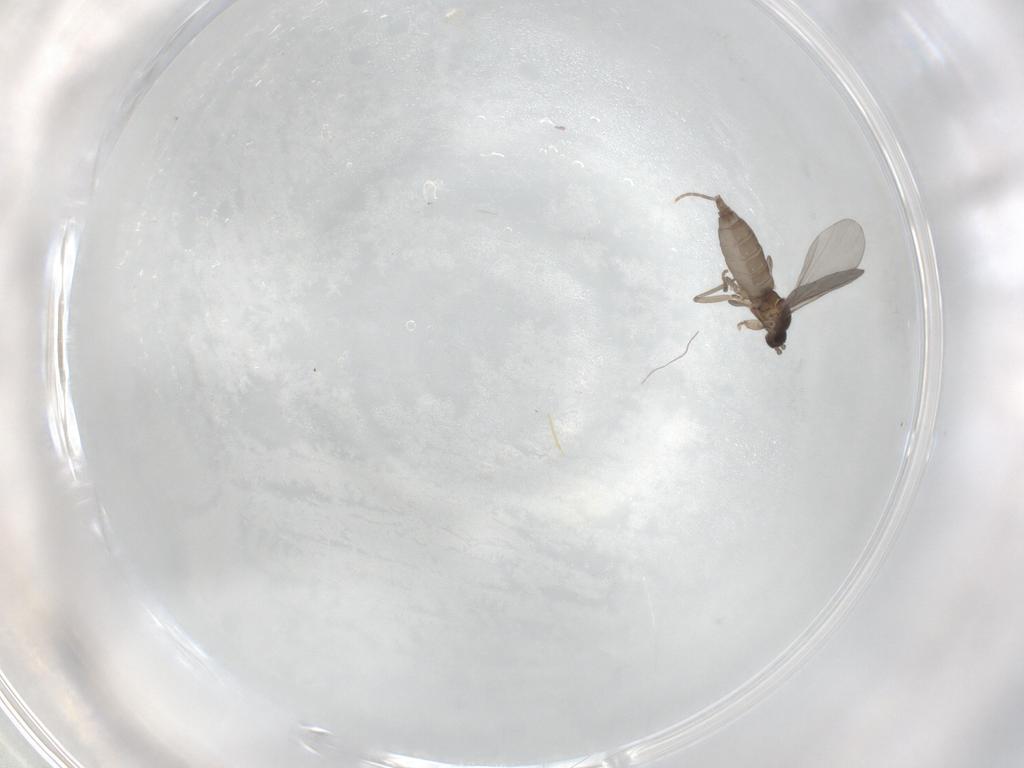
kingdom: Animalia
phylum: Arthropoda
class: Insecta
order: Diptera
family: Psychodidae
